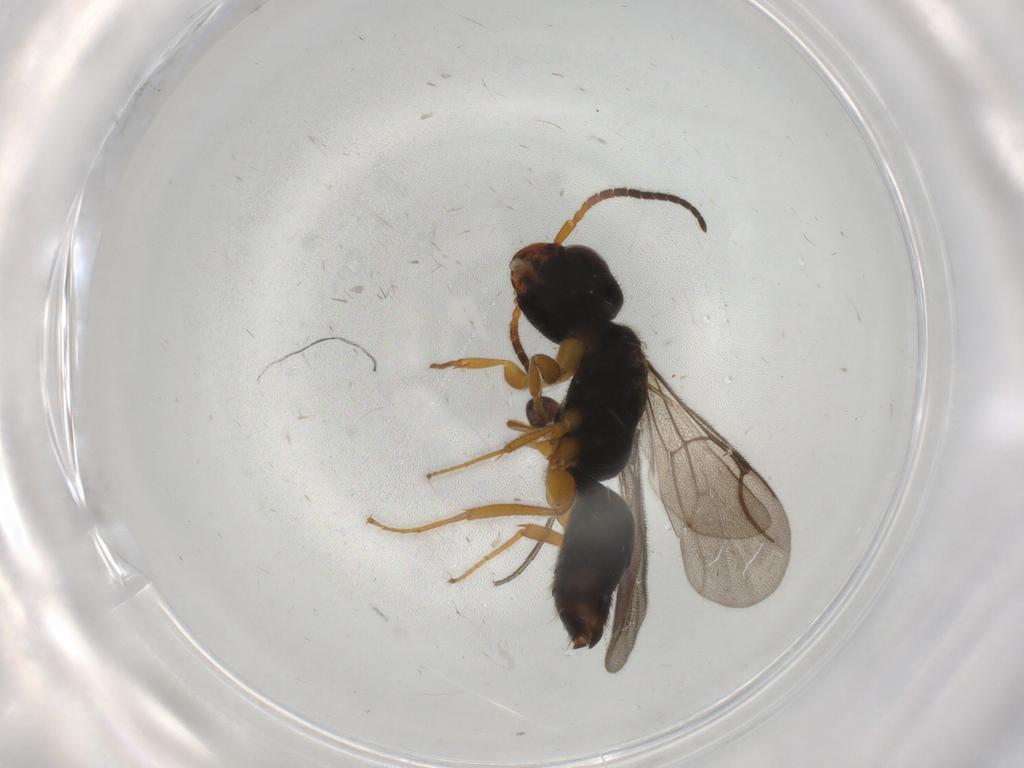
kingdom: Animalia
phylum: Arthropoda
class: Insecta
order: Hymenoptera
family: Bethylidae
